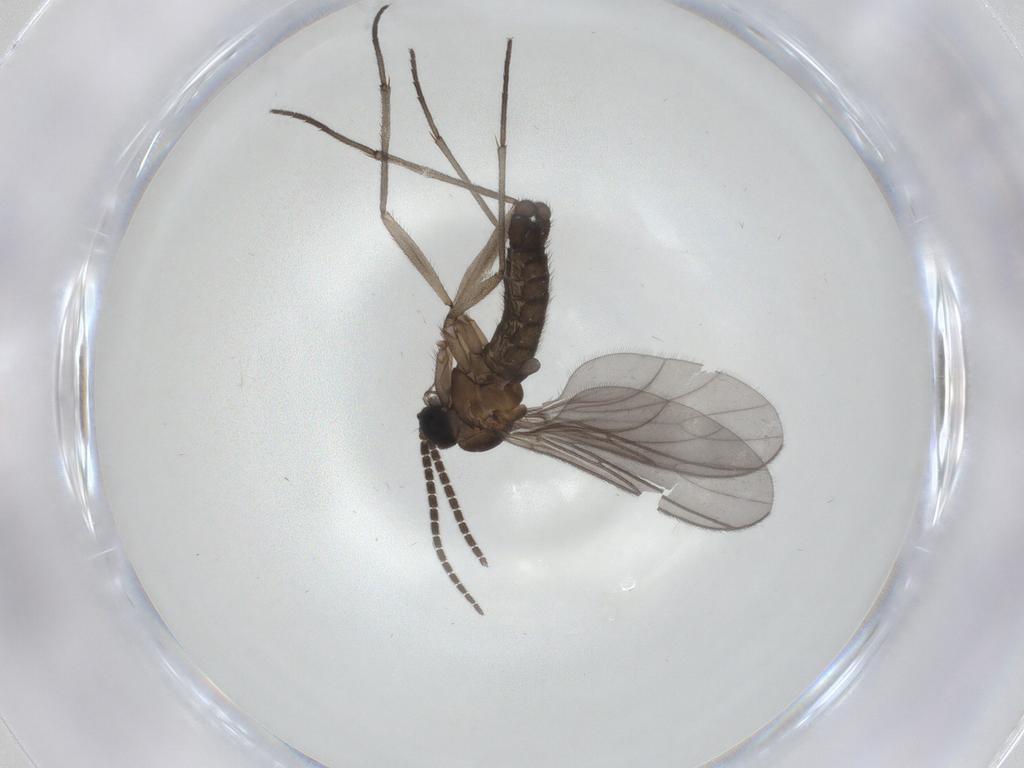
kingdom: Animalia
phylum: Arthropoda
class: Insecta
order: Diptera
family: Sciaridae
